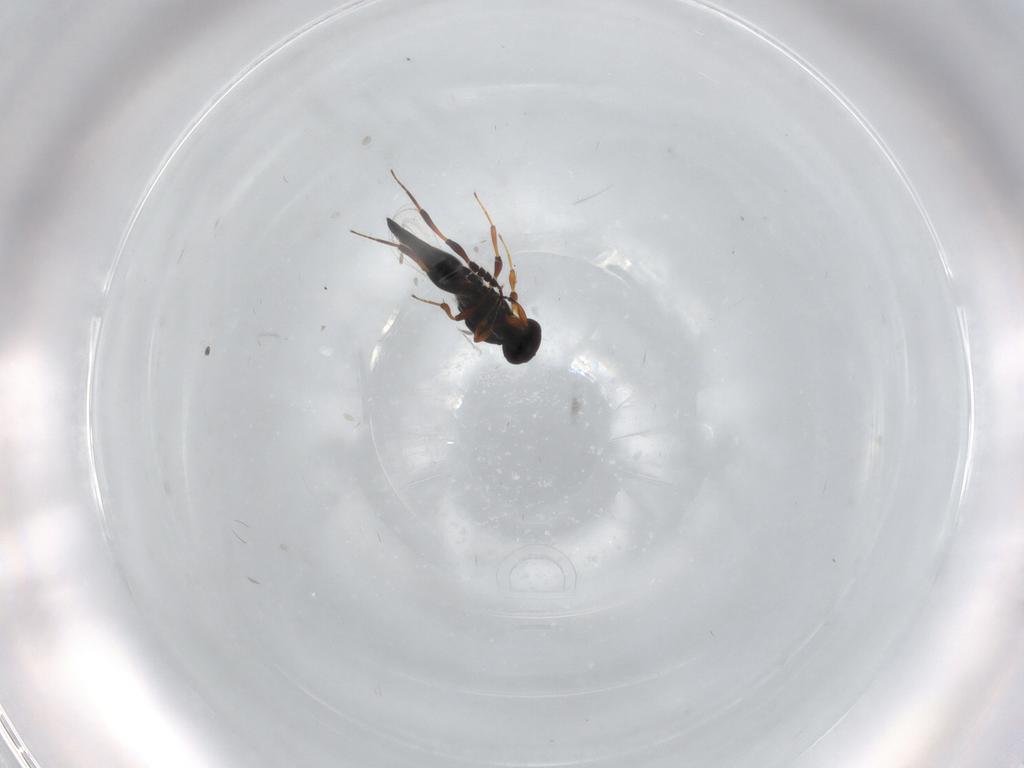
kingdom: Animalia
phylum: Arthropoda
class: Insecta
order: Hymenoptera
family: Platygastridae
